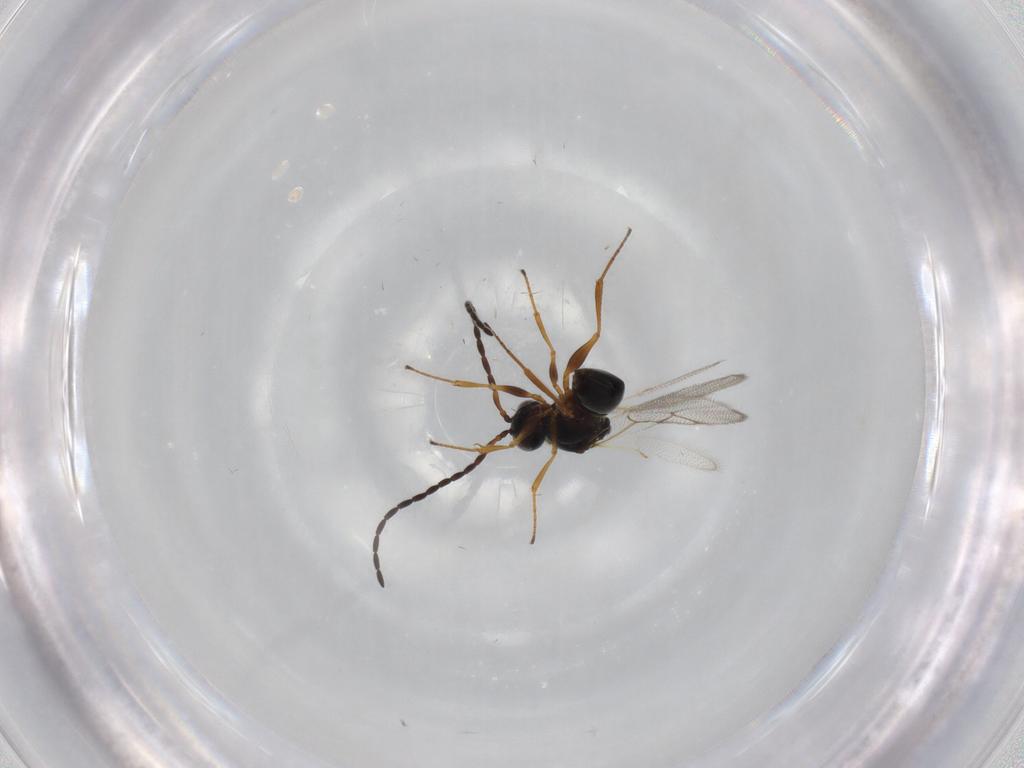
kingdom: Animalia
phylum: Arthropoda
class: Insecta
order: Hymenoptera
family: Figitidae
